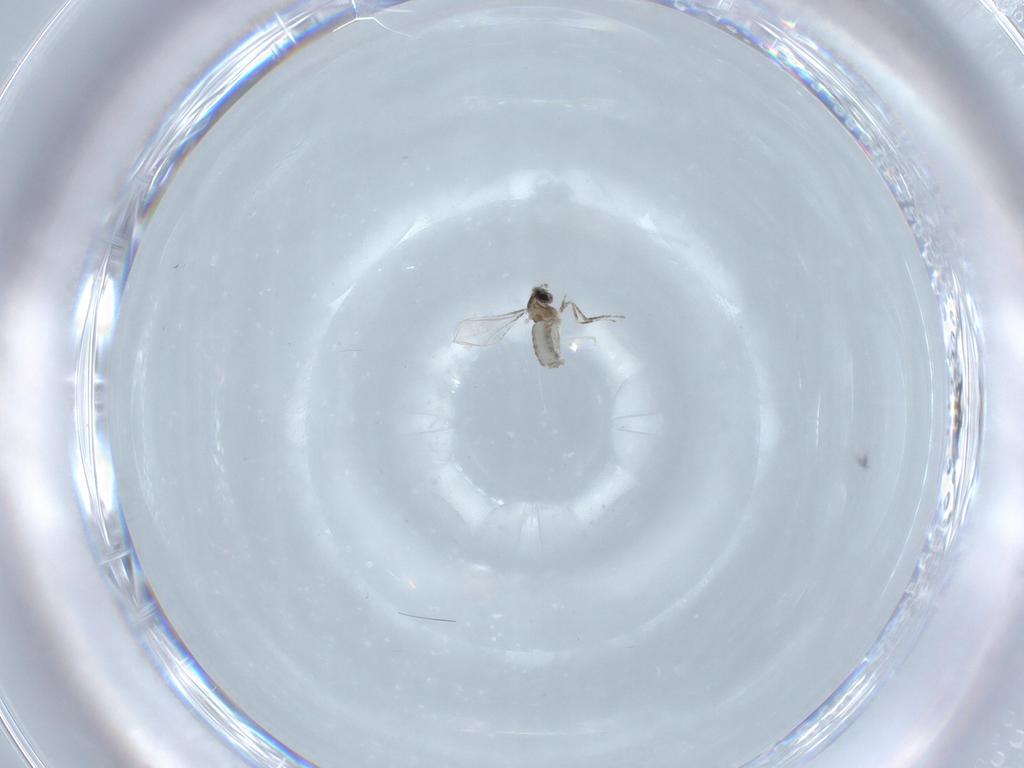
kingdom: Animalia
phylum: Arthropoda
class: Insecta
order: Diptera
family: Cecidomyiidae
